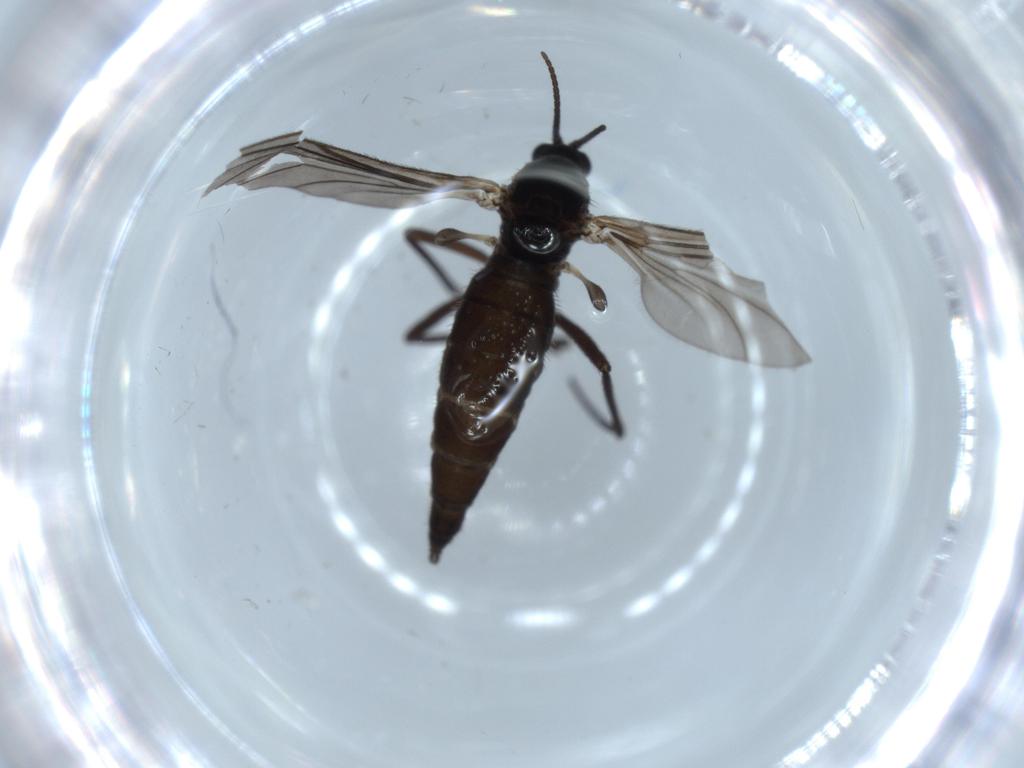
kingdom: Animalia
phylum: Arthropoda
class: Insecta
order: Diptera
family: Sciaridae
